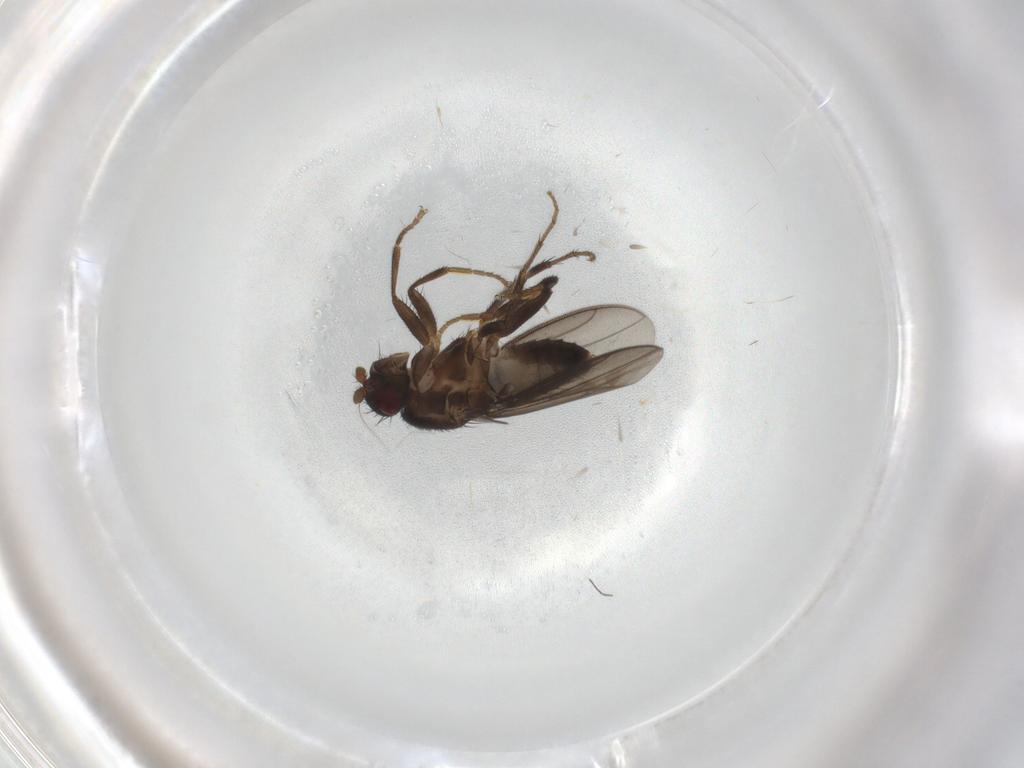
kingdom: Animalia
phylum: Arthropoda
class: Insecta
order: Diptera
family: Sphaeroceridae
